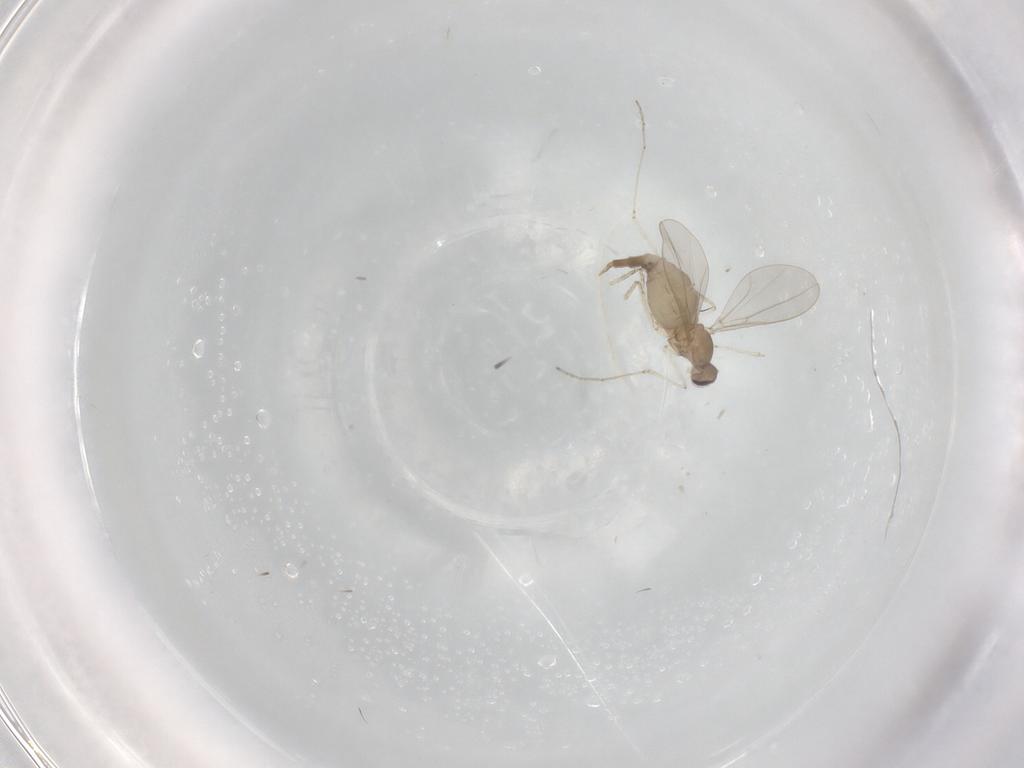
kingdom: Animalia
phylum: Arthropoda
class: Insecta
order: Diptera
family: Cecidomyiidae
